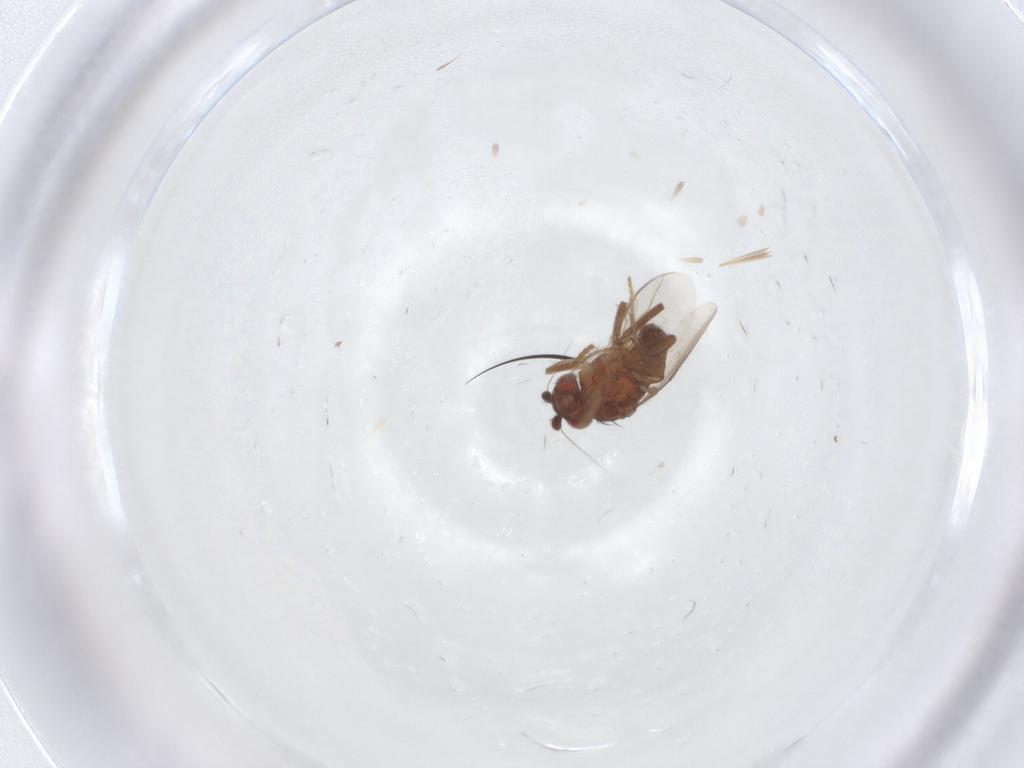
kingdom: Animalia
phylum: Arthropoda
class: Insecta
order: Diptera
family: Sphaeroceridae
